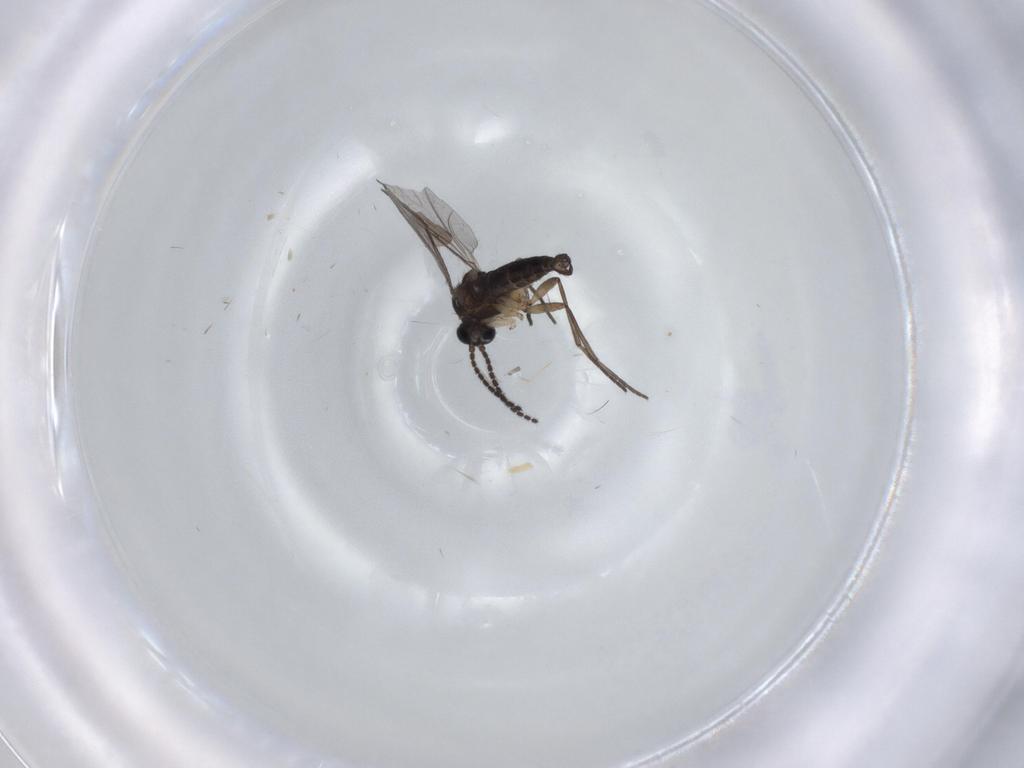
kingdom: Animalia
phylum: Arthropoda
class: Insecta
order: Diptera
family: Sciaridae
